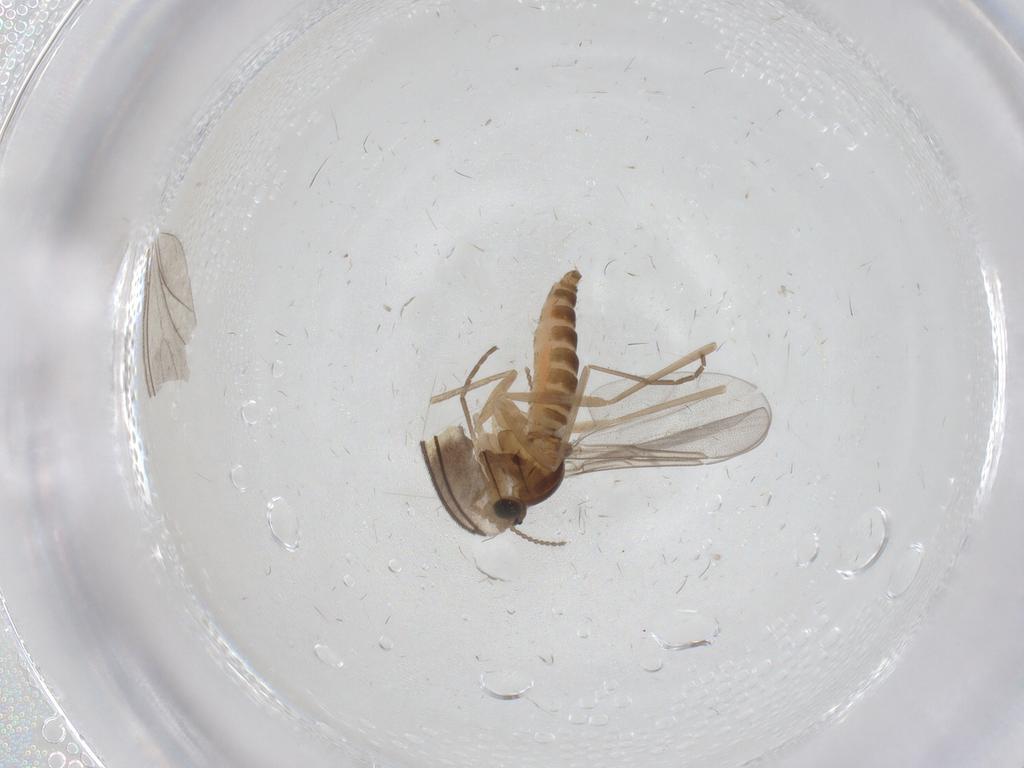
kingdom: Animalia
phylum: Arthropoda
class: Insecta
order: Diptera
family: Cecidomyiidae
